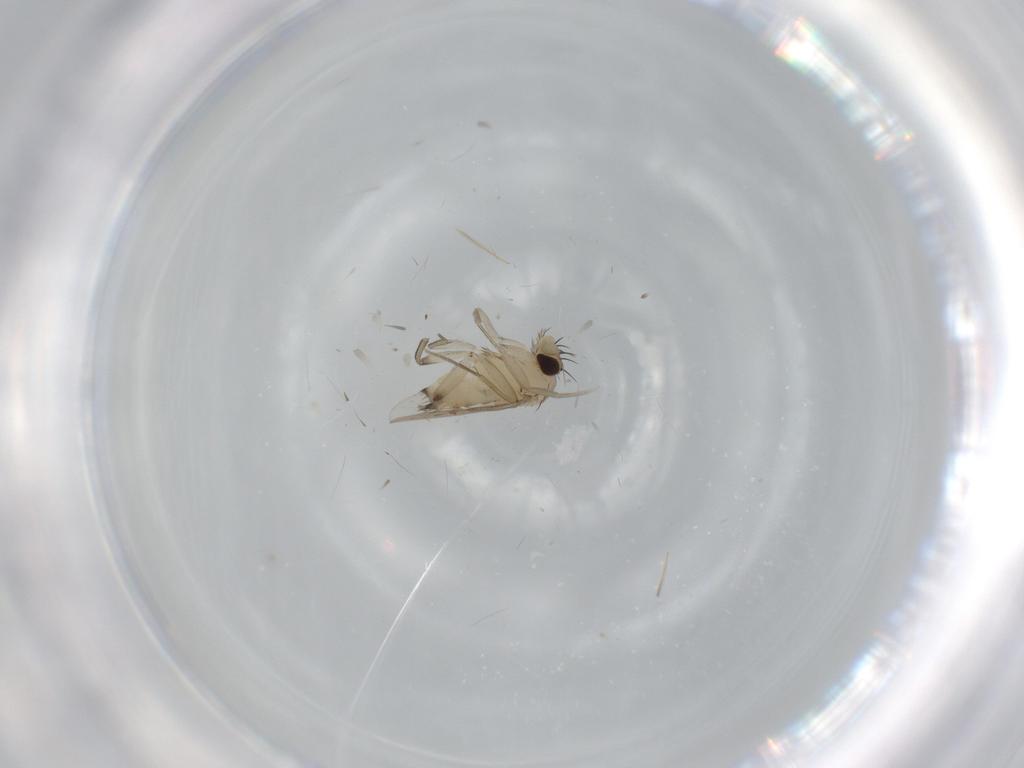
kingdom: Animalia
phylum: Arthropoda
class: Insecta
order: Diptera
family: Phoridae
